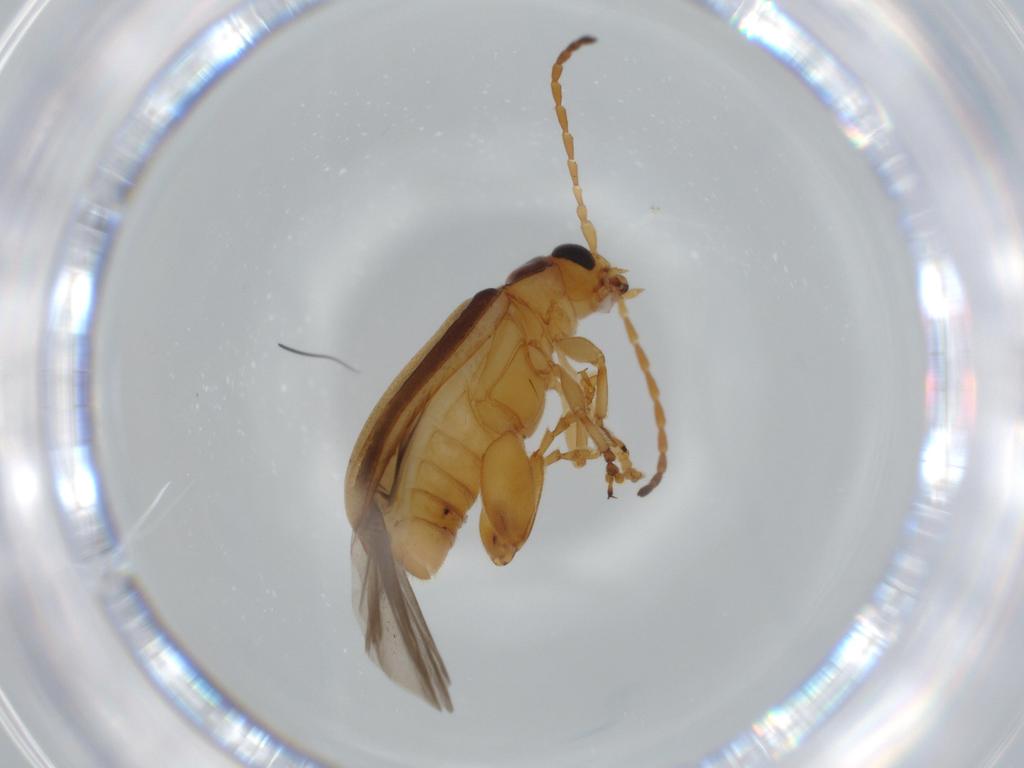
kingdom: Animalia
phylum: Arthropoda
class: Insecta
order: Coleoptera
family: Chrysomelidae
